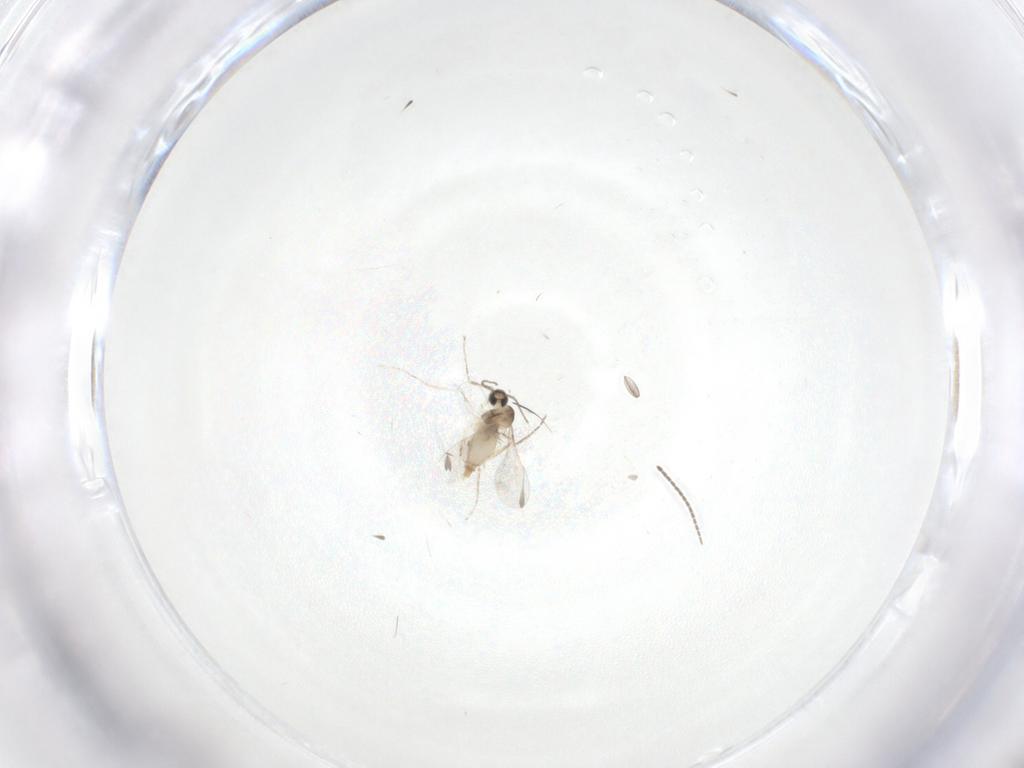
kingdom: Animalia
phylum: Arthropoda
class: Insecta
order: Diptera
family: Cecidomyiidae
